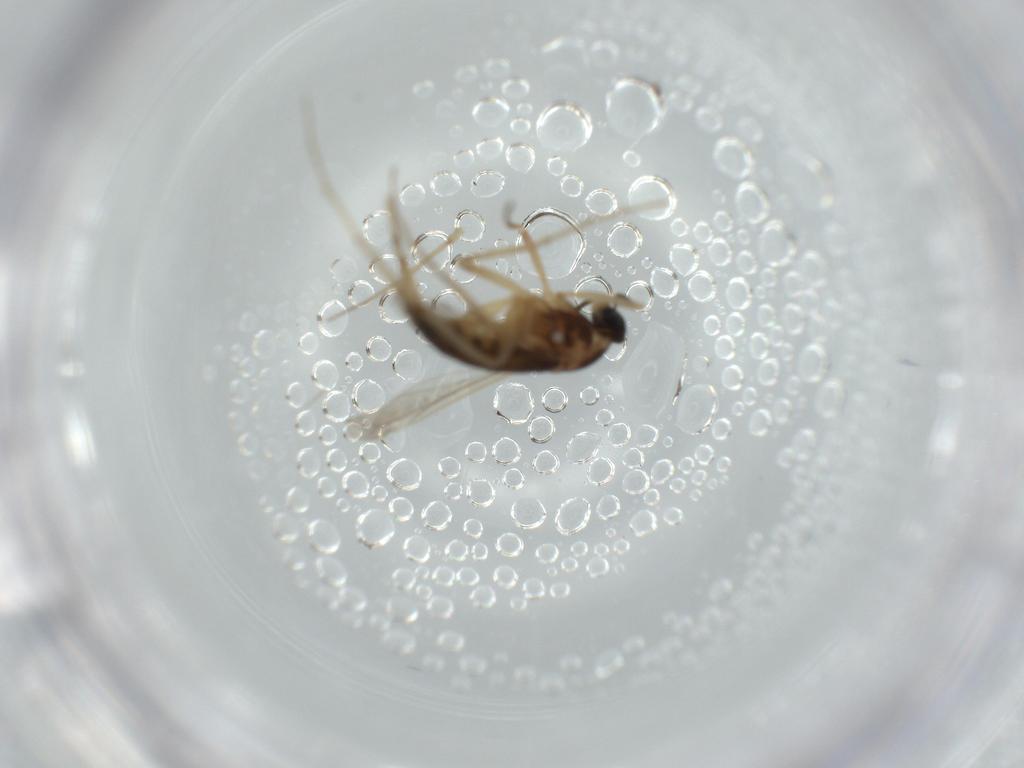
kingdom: Animalia
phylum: Arthropoda
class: Insecta
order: Diptera
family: Cecidomyiidae
